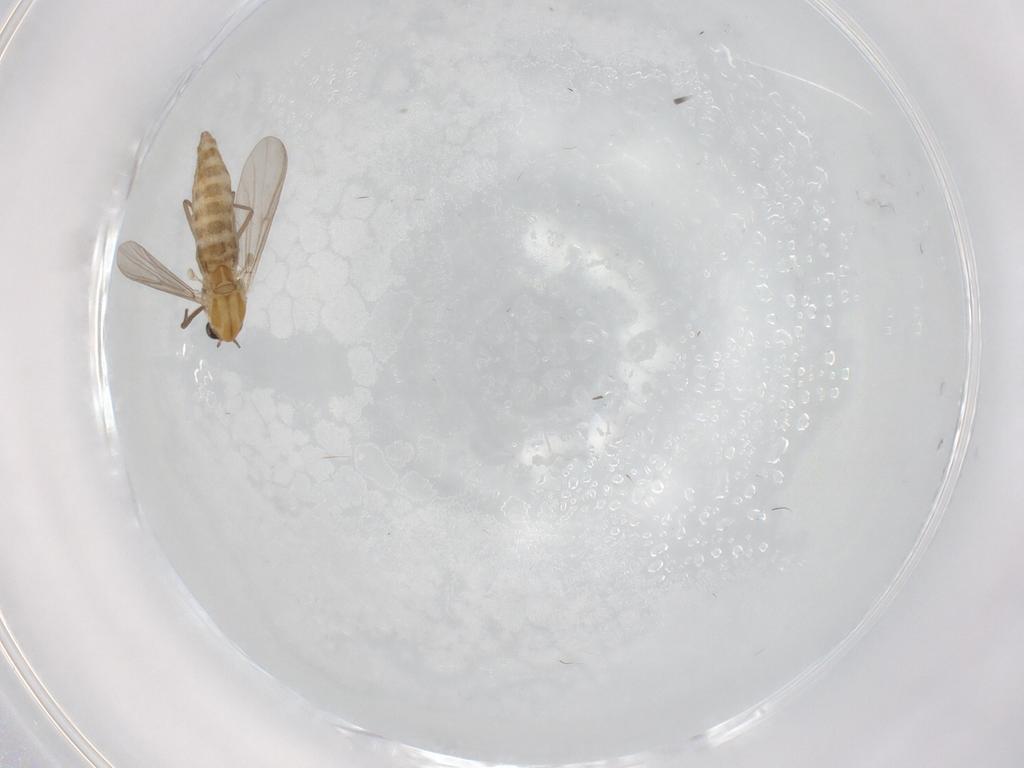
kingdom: Animalia
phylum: Arthropoda
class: Insecta
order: Diptera
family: Chironomidae
